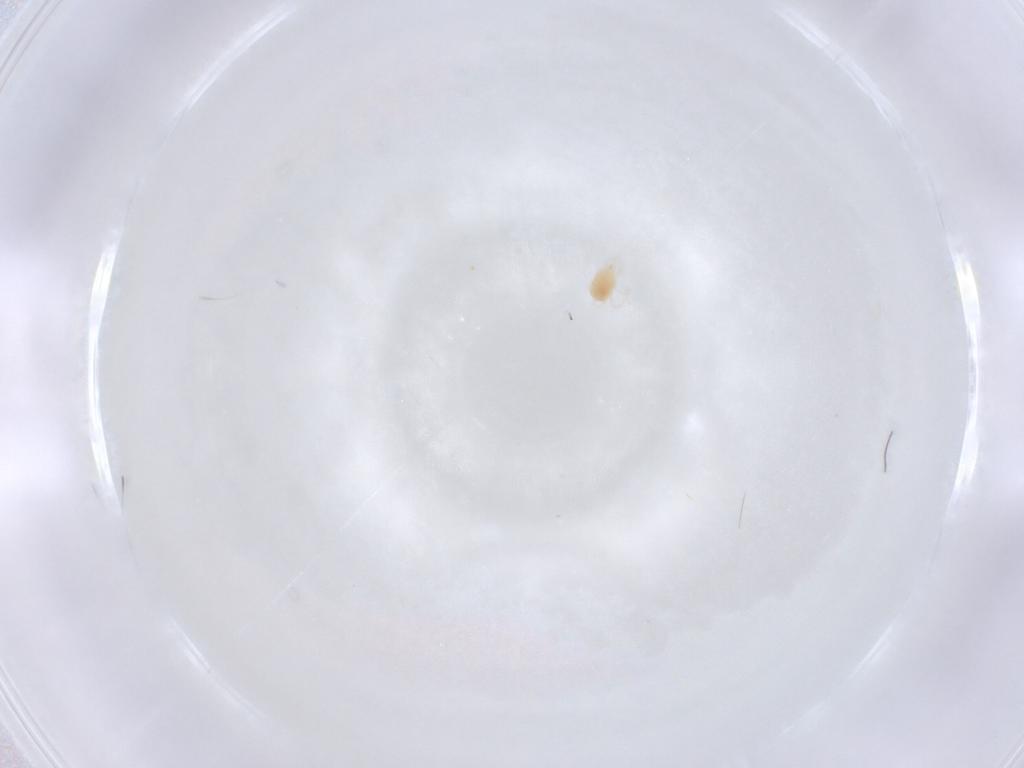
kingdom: Animalia
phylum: Arthropoda
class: Arachnida
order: Trombidiformes
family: Tetranychidae
